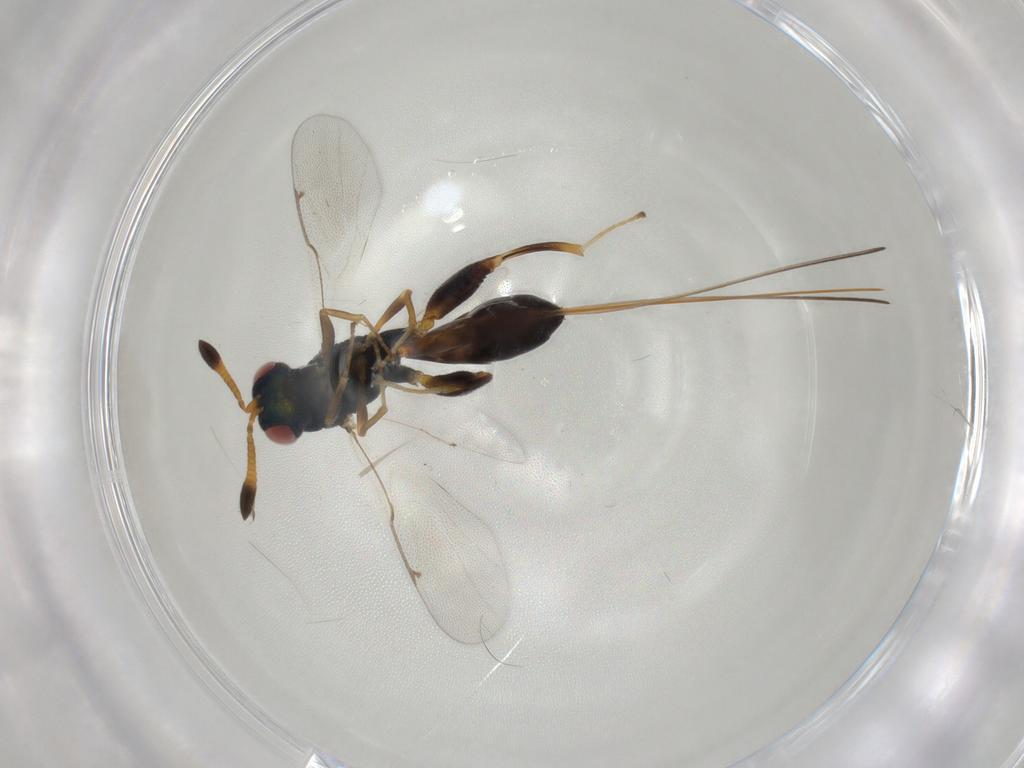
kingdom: Animalia
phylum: Arthropoda
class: Insecta
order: Hymenoptera
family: Torymidae
